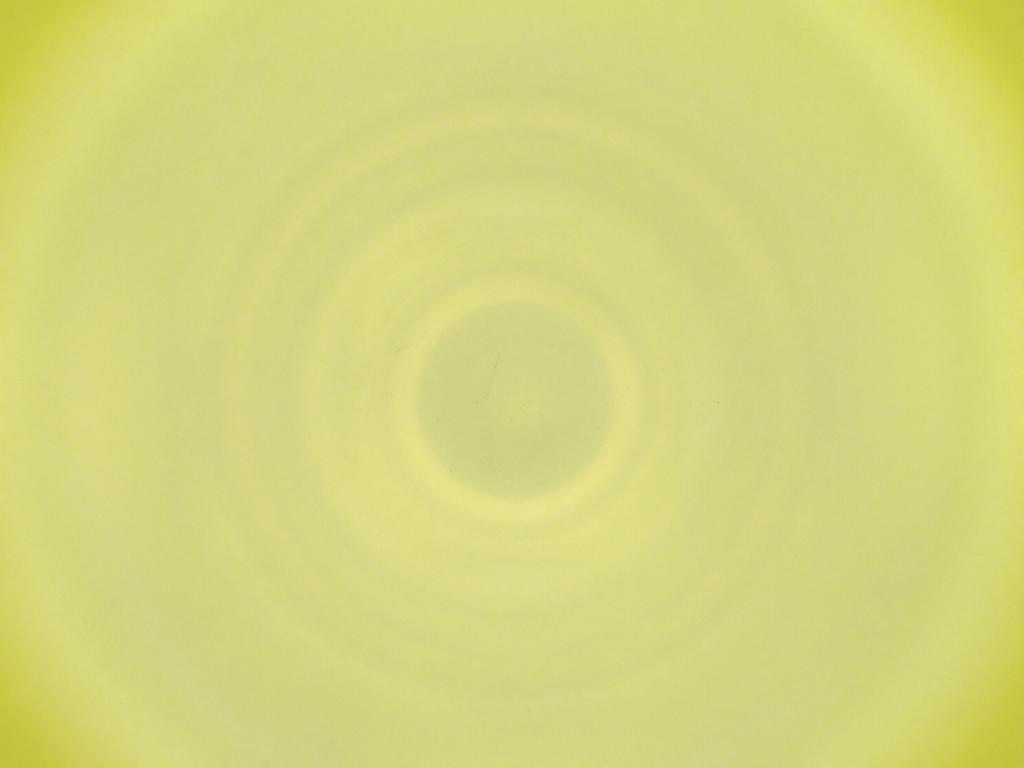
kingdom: Animalia
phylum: Arthropoda
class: Insecta
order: Diptera
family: Cecidomyiidae
